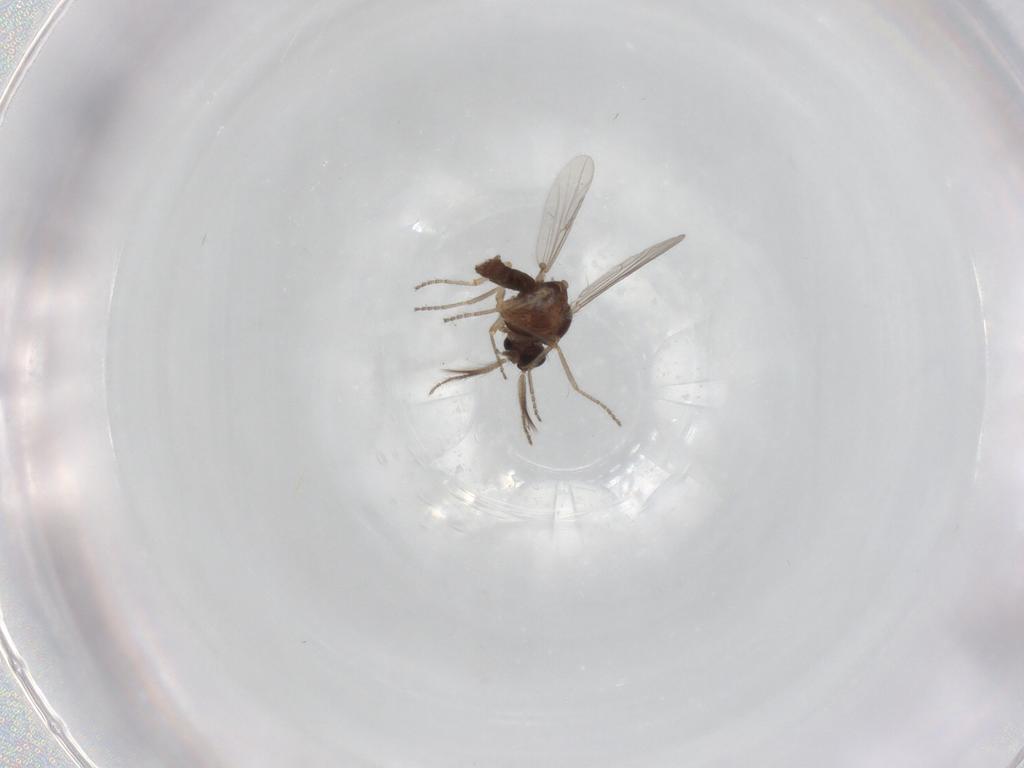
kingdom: Animalia
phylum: Arthropoda
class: Insecta
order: Diptera
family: Ceratopogonidae
